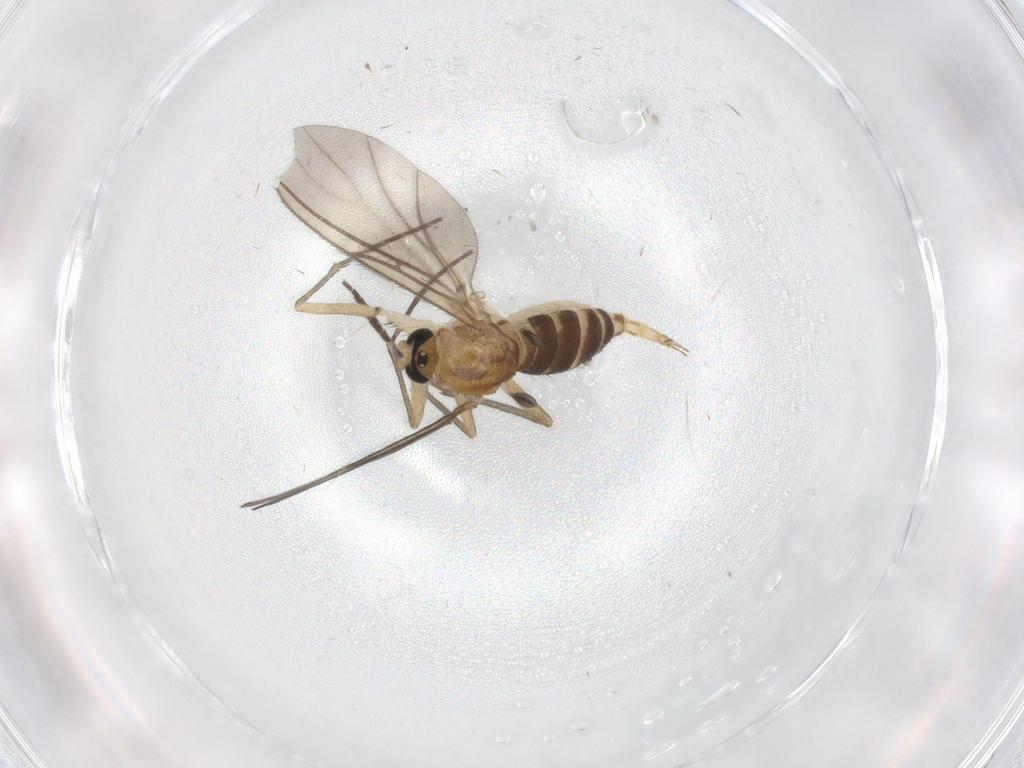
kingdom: Animalia
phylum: Arthropoda
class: Insecta
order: Diptera
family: Sciaridae
